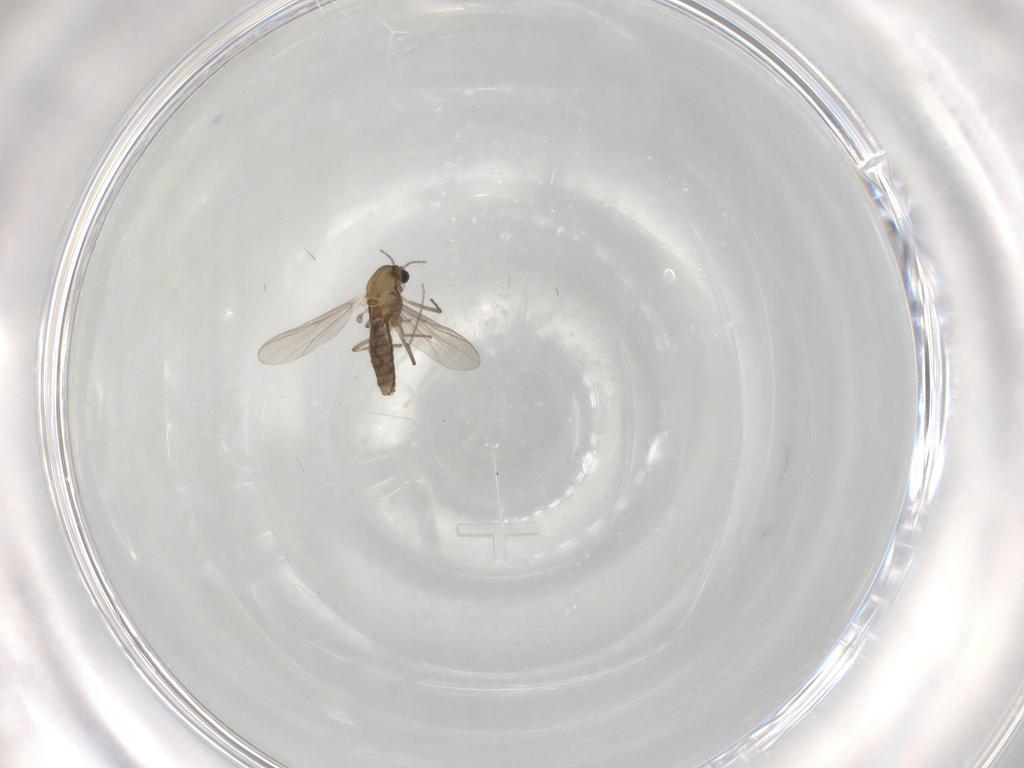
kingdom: Animalia
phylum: Arthropoda
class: Insecta
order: Diptera
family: Chironomidae
